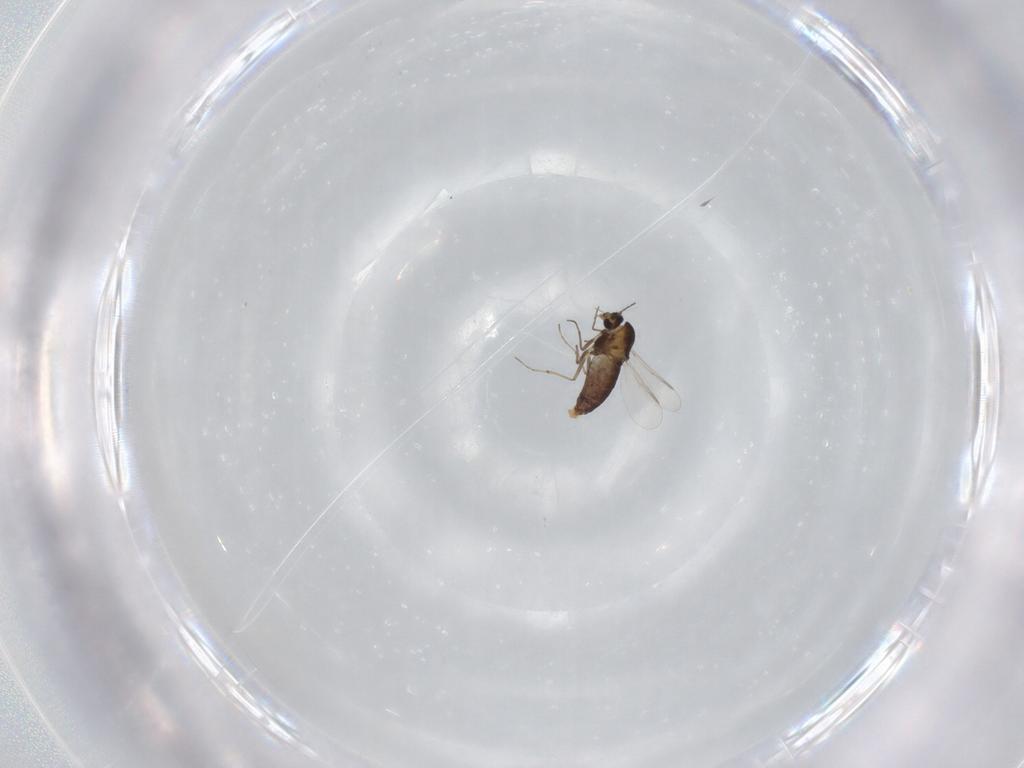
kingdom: Animalia
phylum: Arthropoda
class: Insecta
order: Diptera
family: Chironomidae
